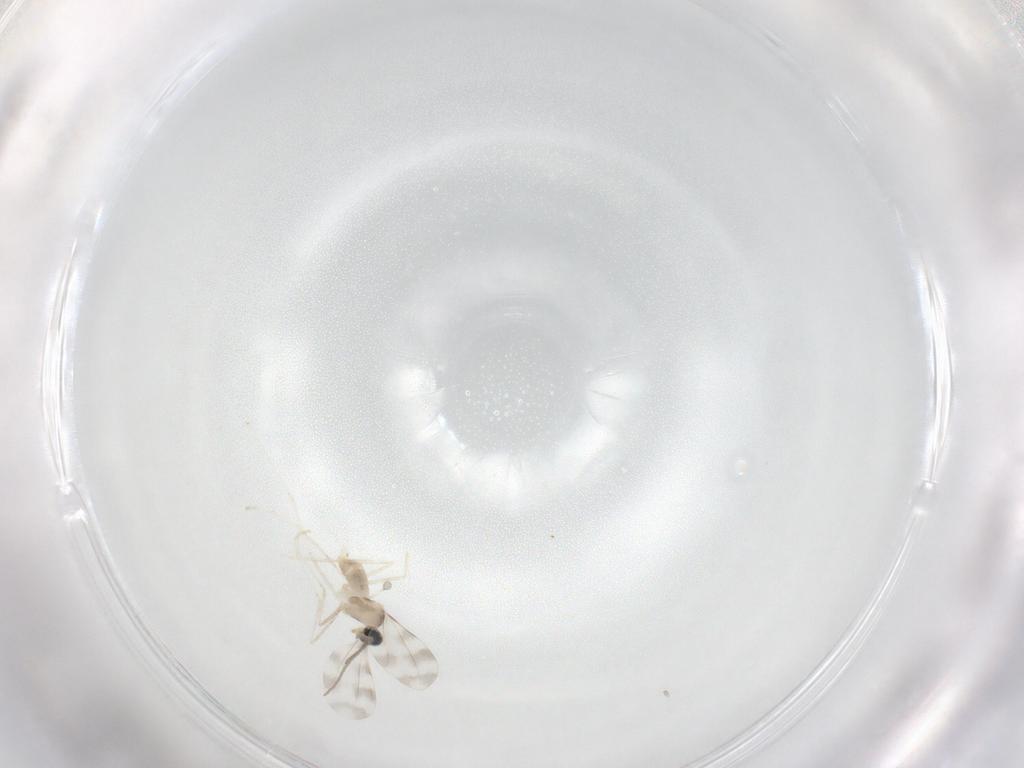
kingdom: Animalia
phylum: Arthropoda
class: Insecta
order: Diptera
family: Cecidomyiidae
